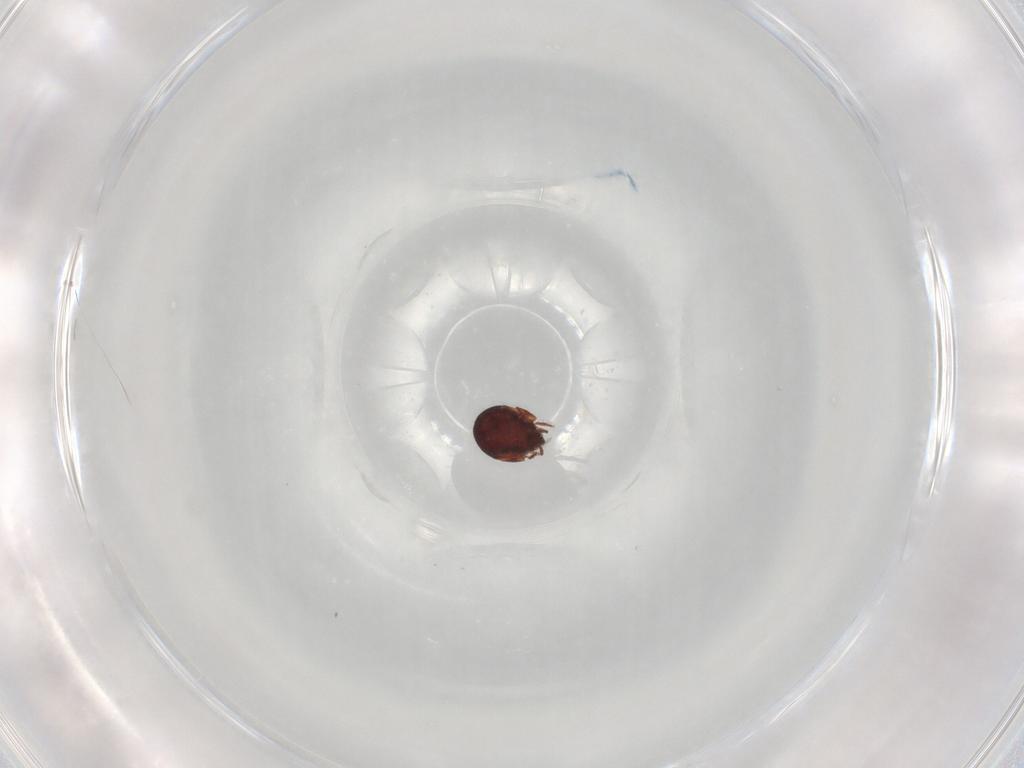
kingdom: Animalia
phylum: Arthropoda
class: Arachnida
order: Sarcoptiformes
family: Humerobatidae
